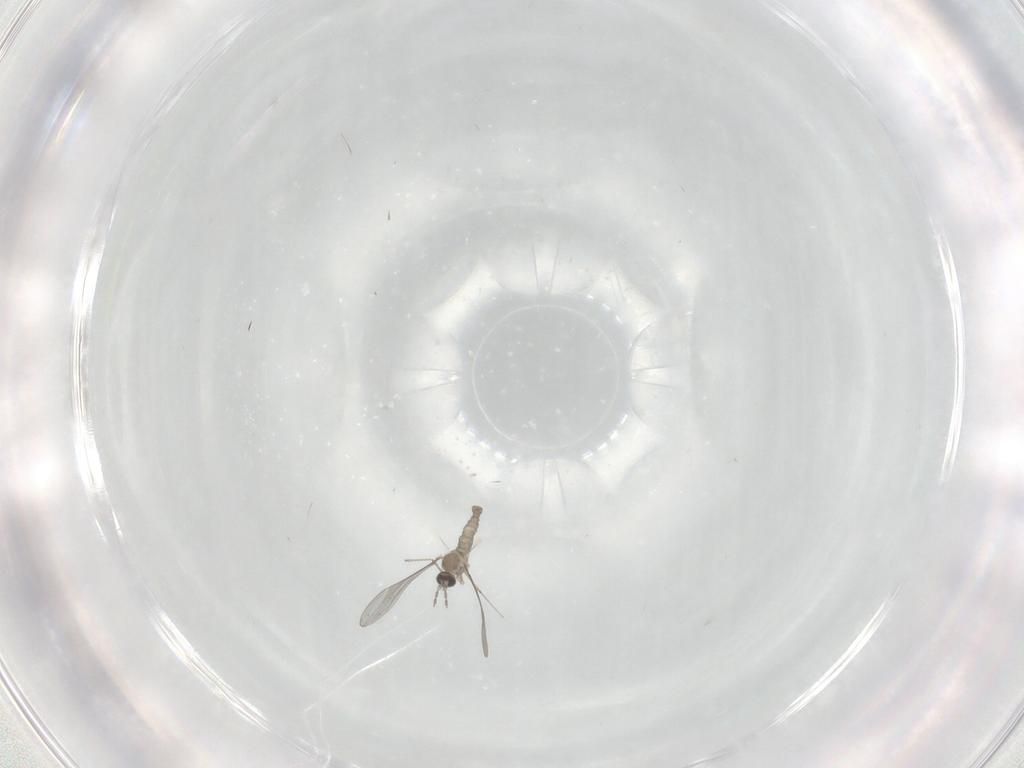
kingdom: Animalia
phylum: Arthropoda
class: Insecta
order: Diptera
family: Cecidomyiidae
